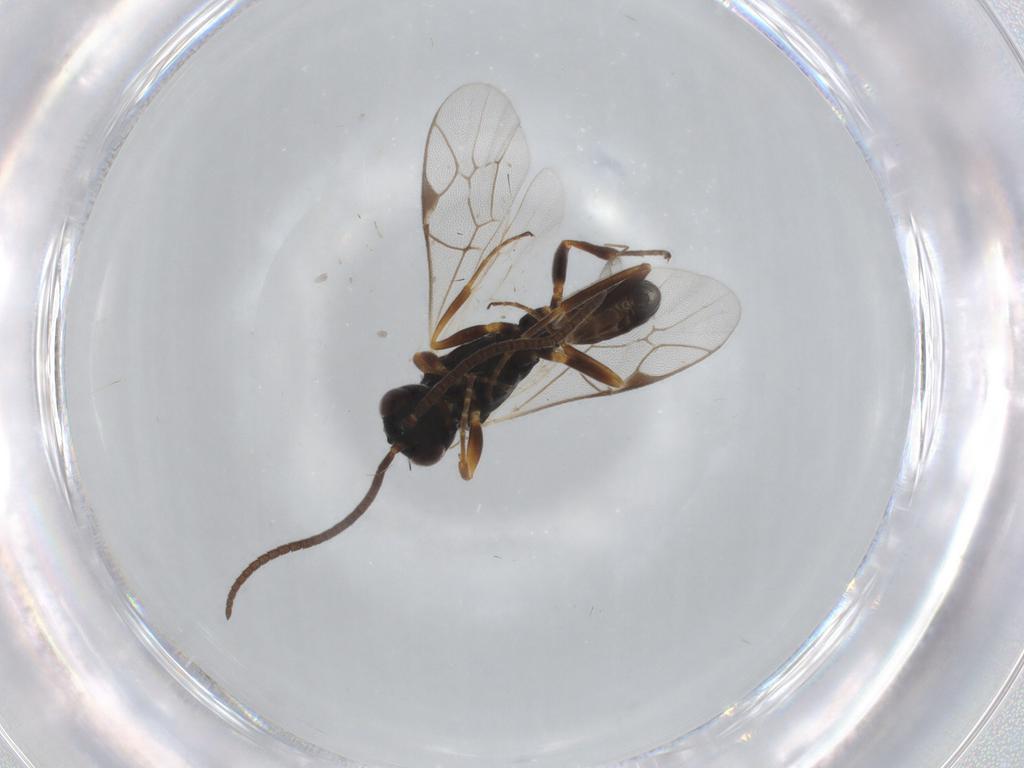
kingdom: Animalia
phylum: Arthropoda
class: Insecta
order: Hymenoptera
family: Ichneumonidae
